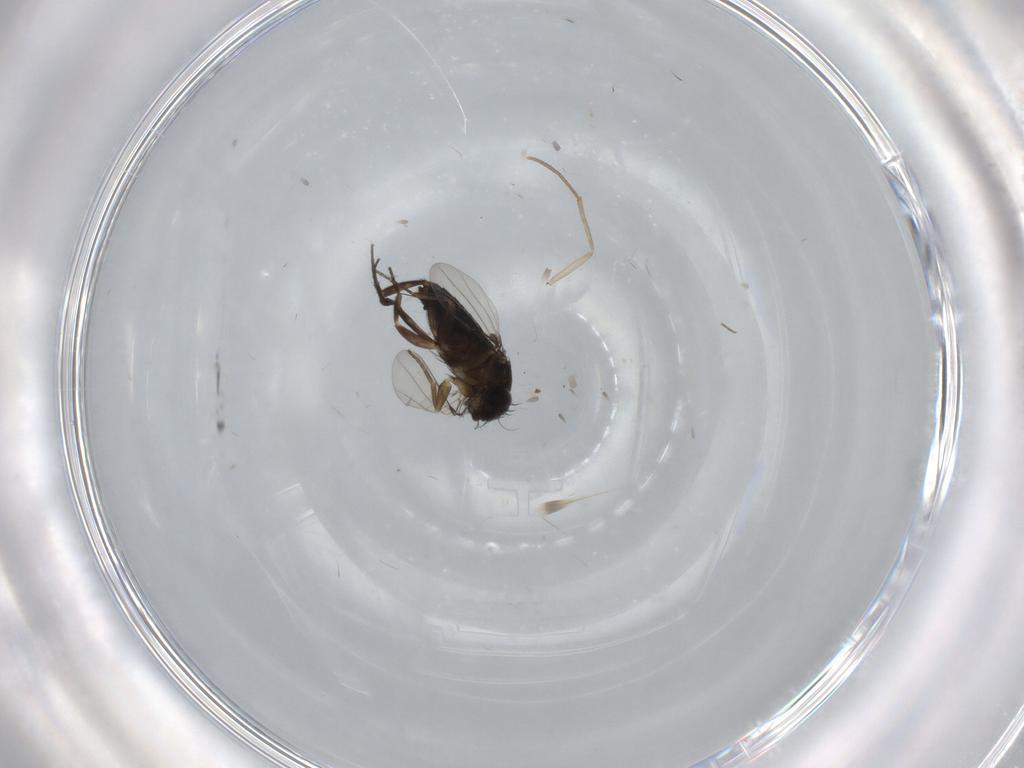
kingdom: Animalia
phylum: Arthropoda
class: Insecta
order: Diptera
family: Phoridae
